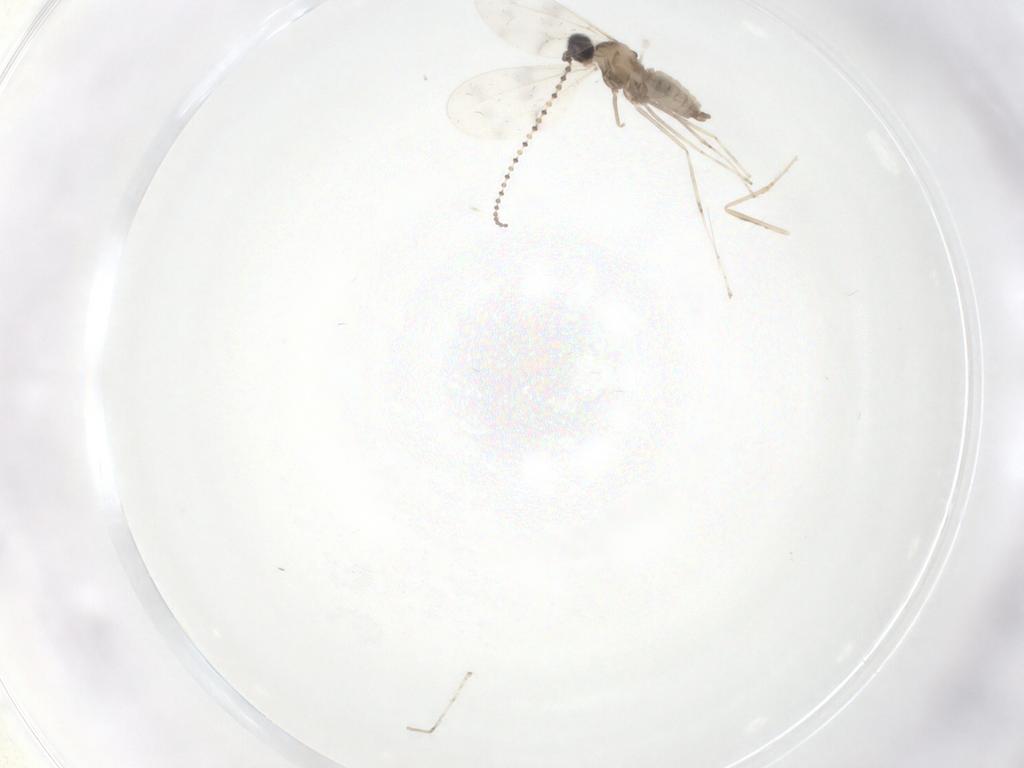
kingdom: Animalia
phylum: Arthropoda
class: Insecta
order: Diptera
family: Cecidomyiidae
